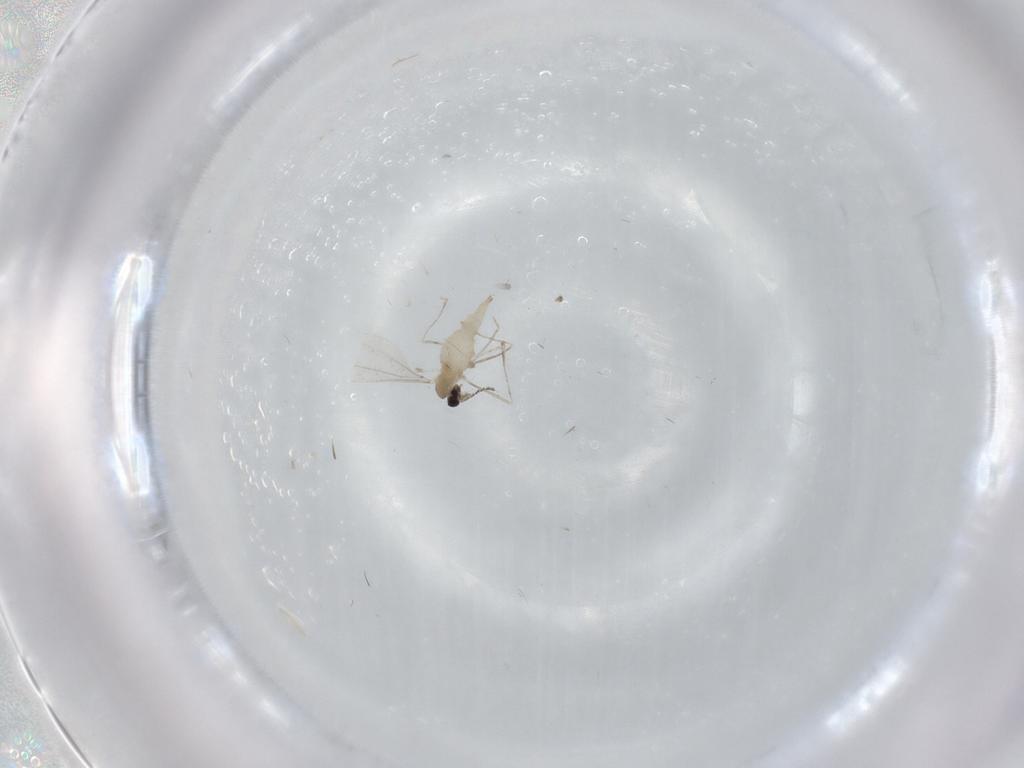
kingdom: Animalia
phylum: Arthropoda
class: Insecta
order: Diptera
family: Cecidomyiidae
